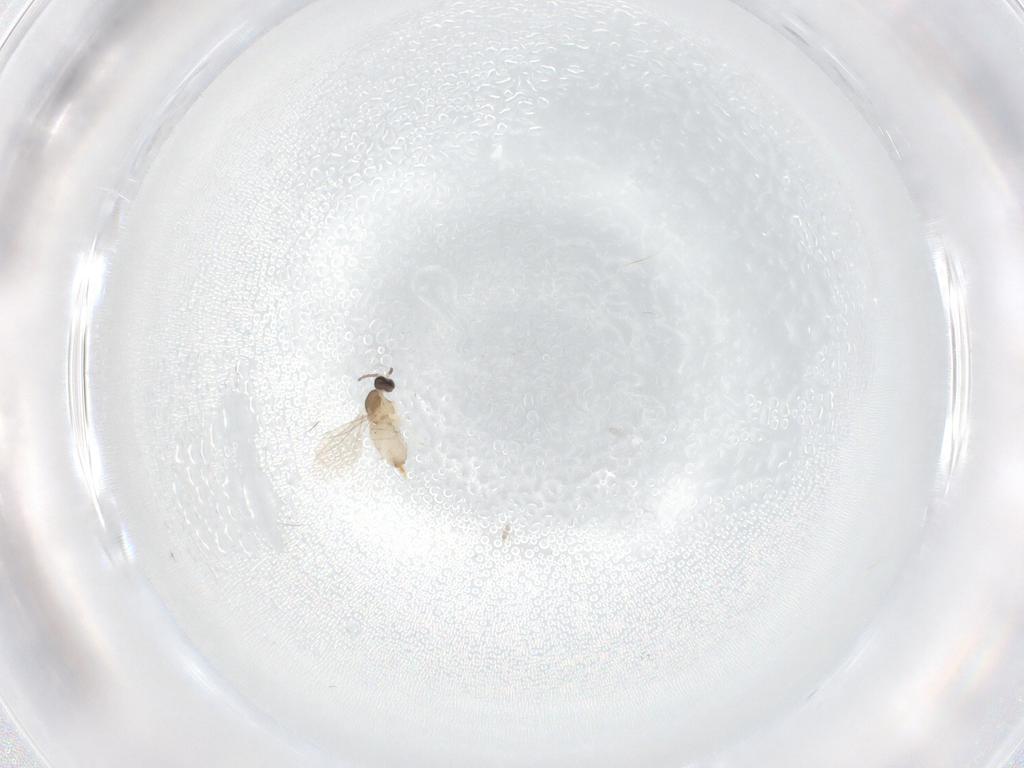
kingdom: Animalia
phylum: Arthropoda
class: Insecta
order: Diptera
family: Cecidomyiidae
